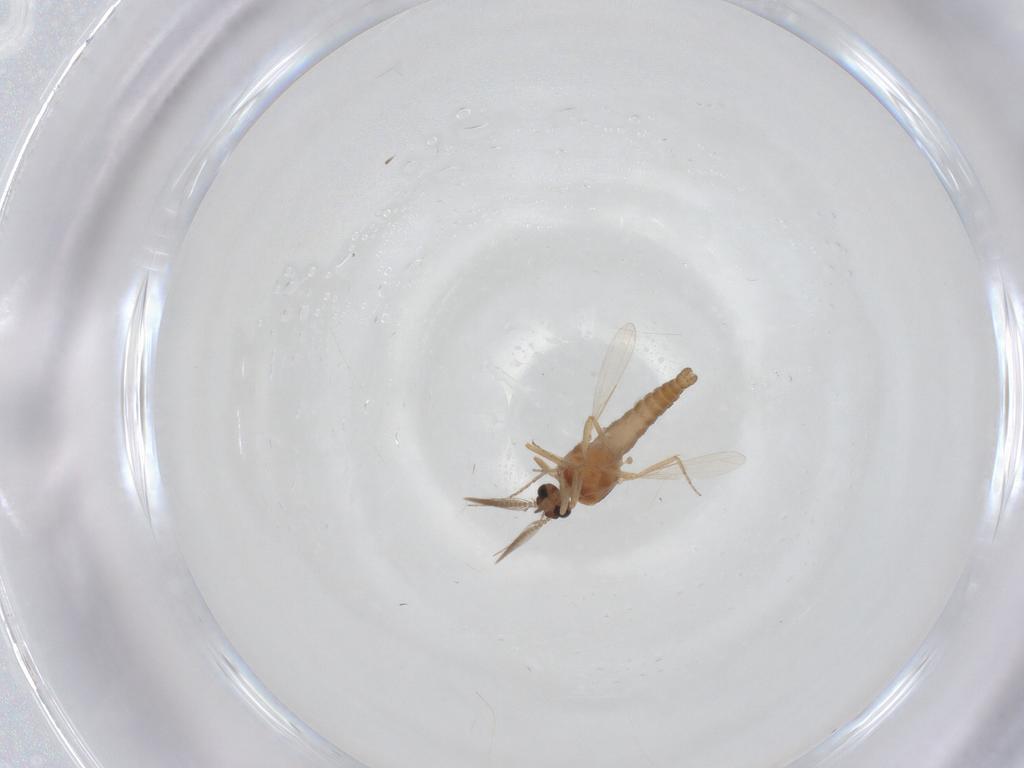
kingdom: Animalia
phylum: Arthropoda
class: Insecta
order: Diptera
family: Ceratopogonidae
